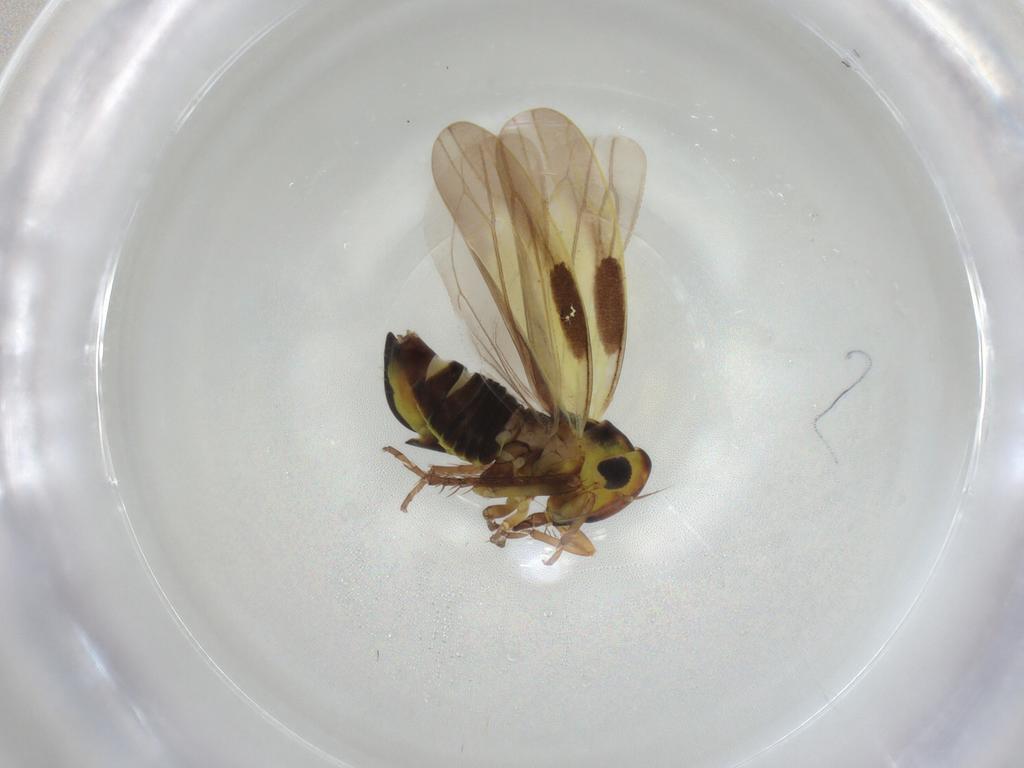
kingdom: Animalia
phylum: Arthropoda
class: Insecta
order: Hemiptera
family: Cicadellidae
